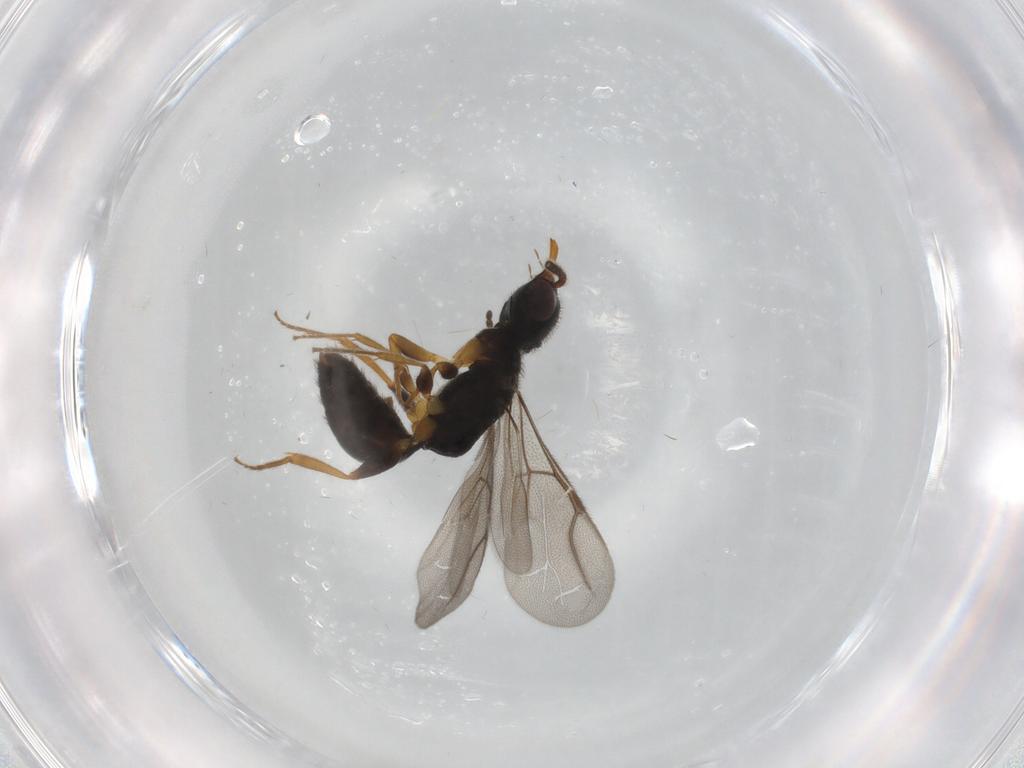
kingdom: Animalia
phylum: Arthropoda
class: Insecta
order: Hymenoptera
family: Bethylidae
